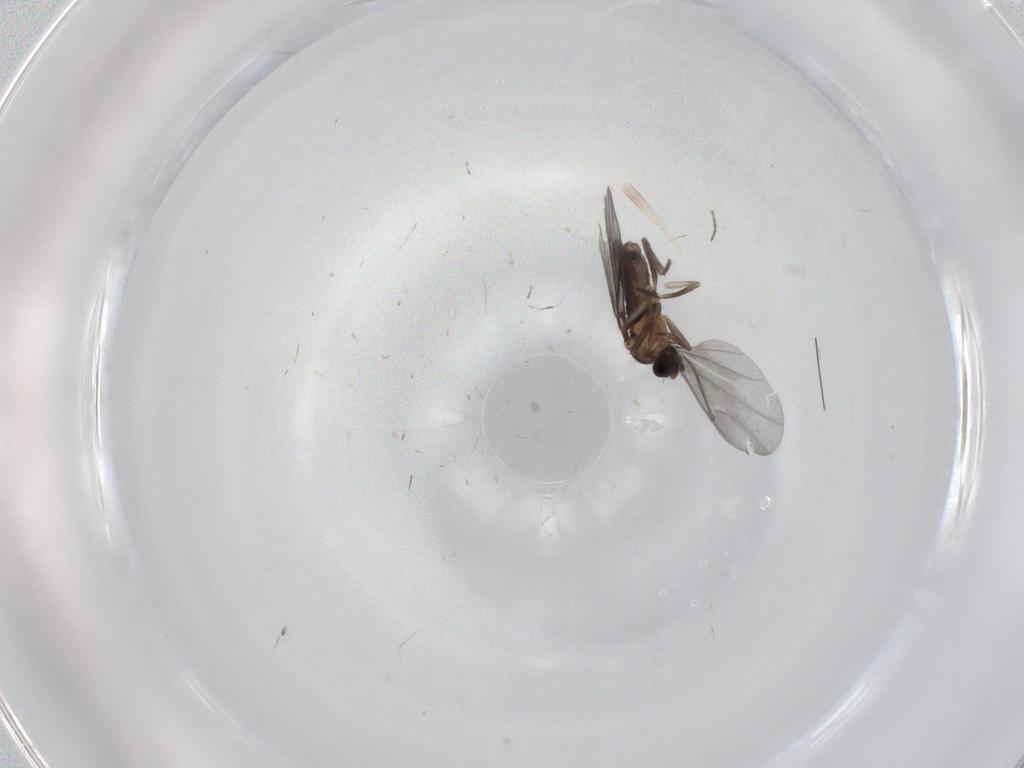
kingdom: Animalia
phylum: Arthropoda
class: Insecta
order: Diptera
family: Phoridae
